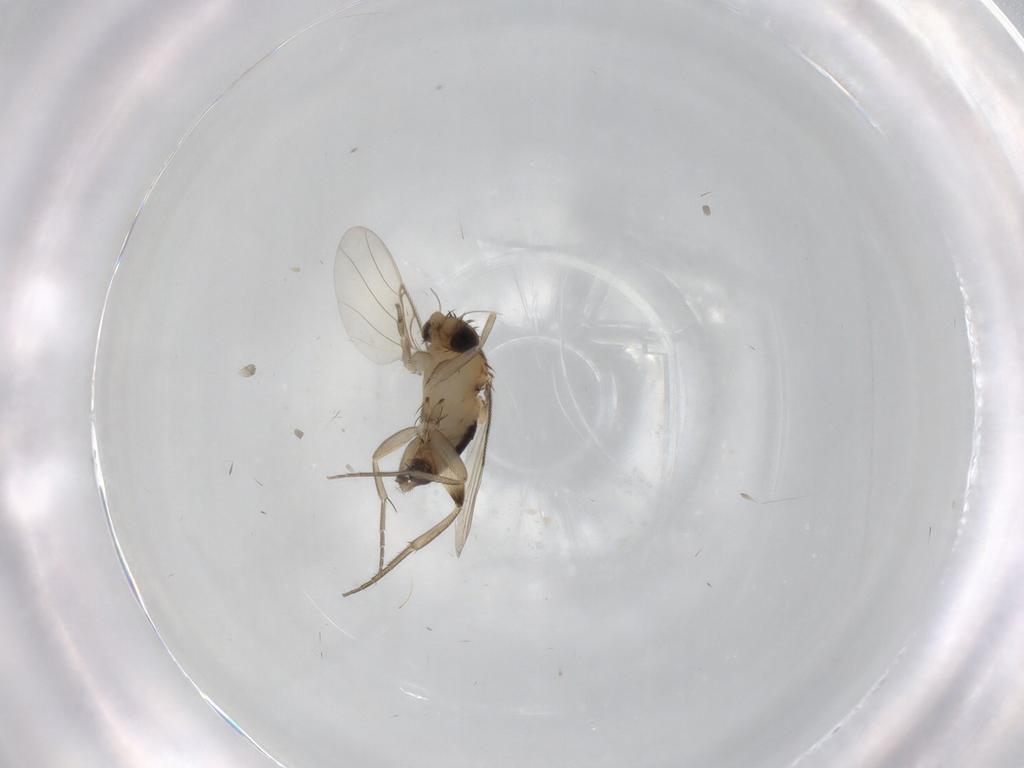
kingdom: Animalia
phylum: Arthropoda
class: Insecta
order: Diptera
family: Phoridae
